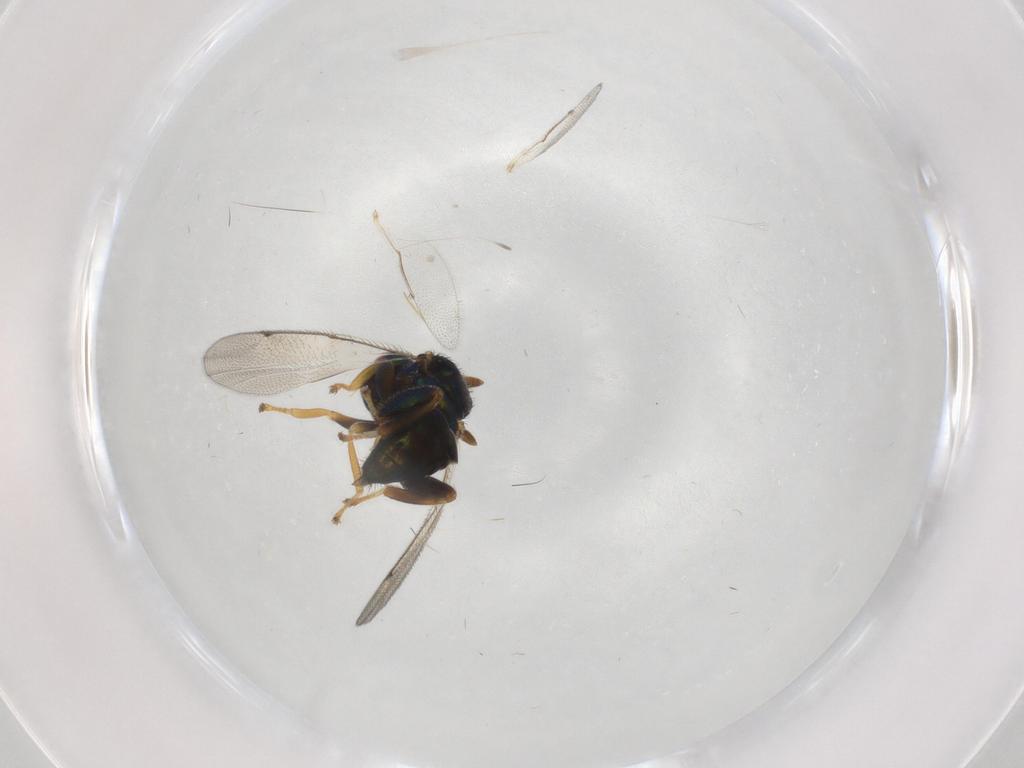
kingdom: Animalia
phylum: Arthropoda
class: Insecta
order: Hymenoptera
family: Torymidae
